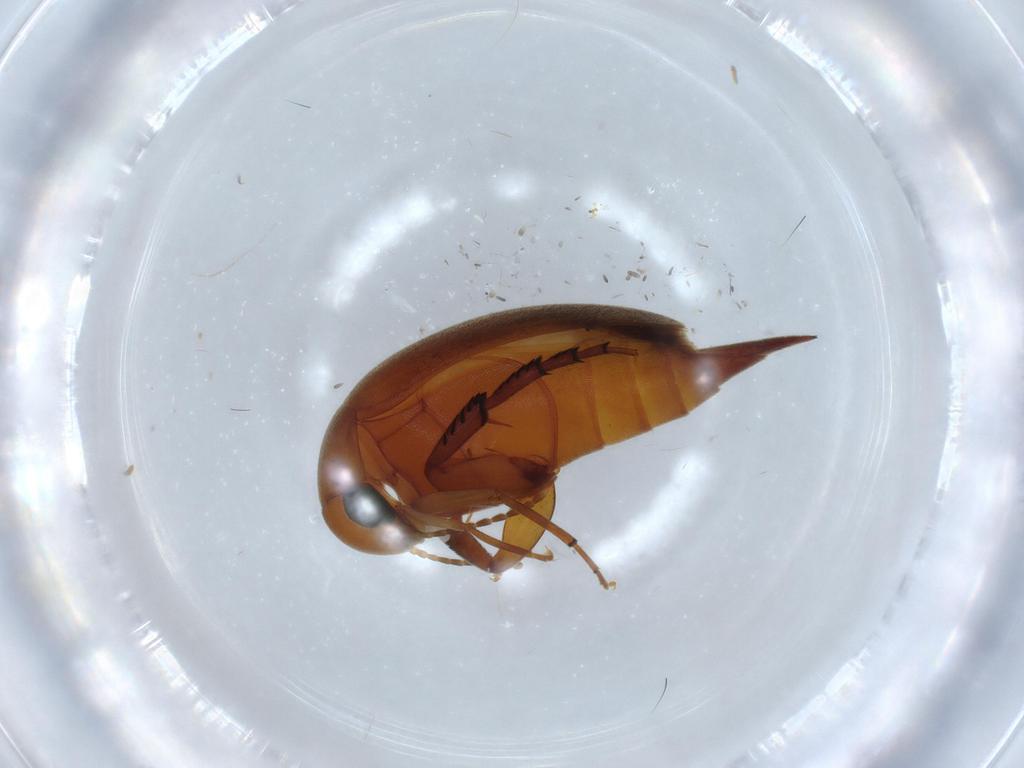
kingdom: Animalia
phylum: Arthropoda
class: Insecta
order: Coleoptera
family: Mordellidae
